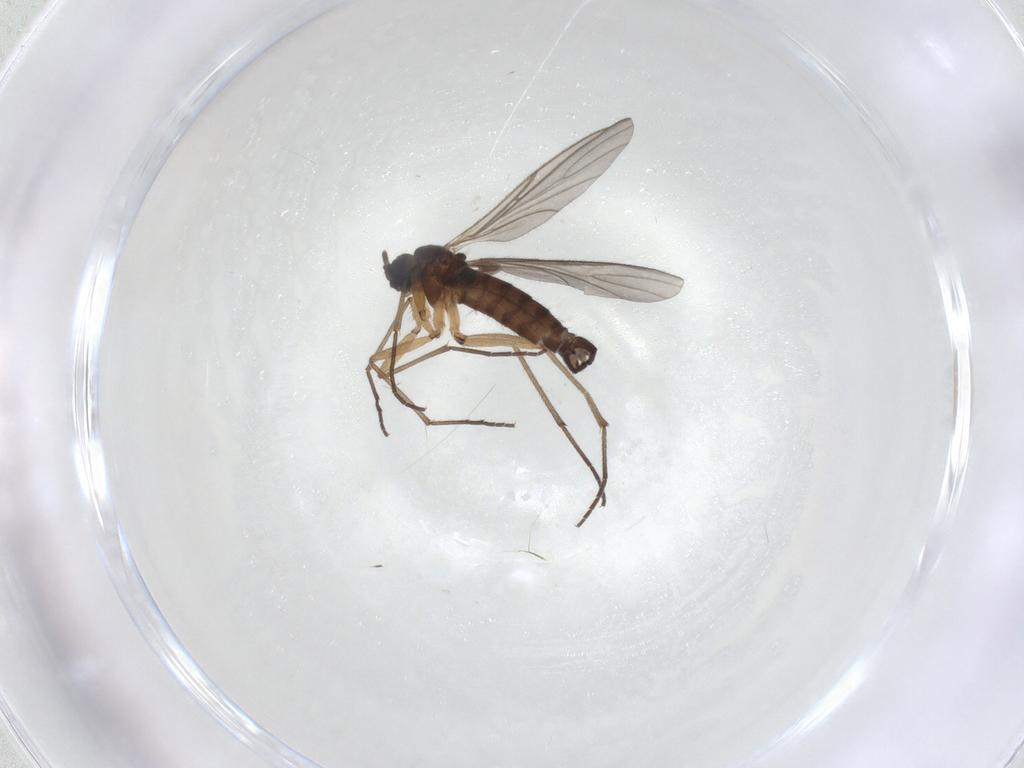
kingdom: Animalia
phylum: Arthropoda
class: Insecta
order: Diptera
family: Sciaridae
